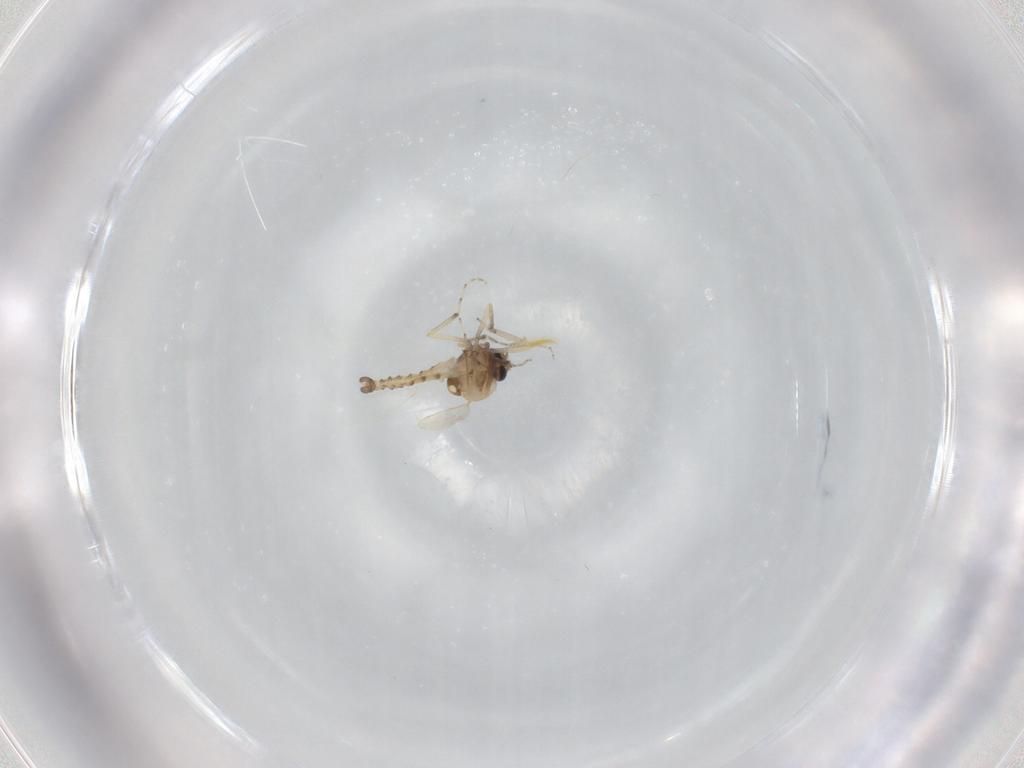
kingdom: Animalia
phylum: Arthropoda
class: Insecta
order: Diptera
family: Ceratopogonidae
